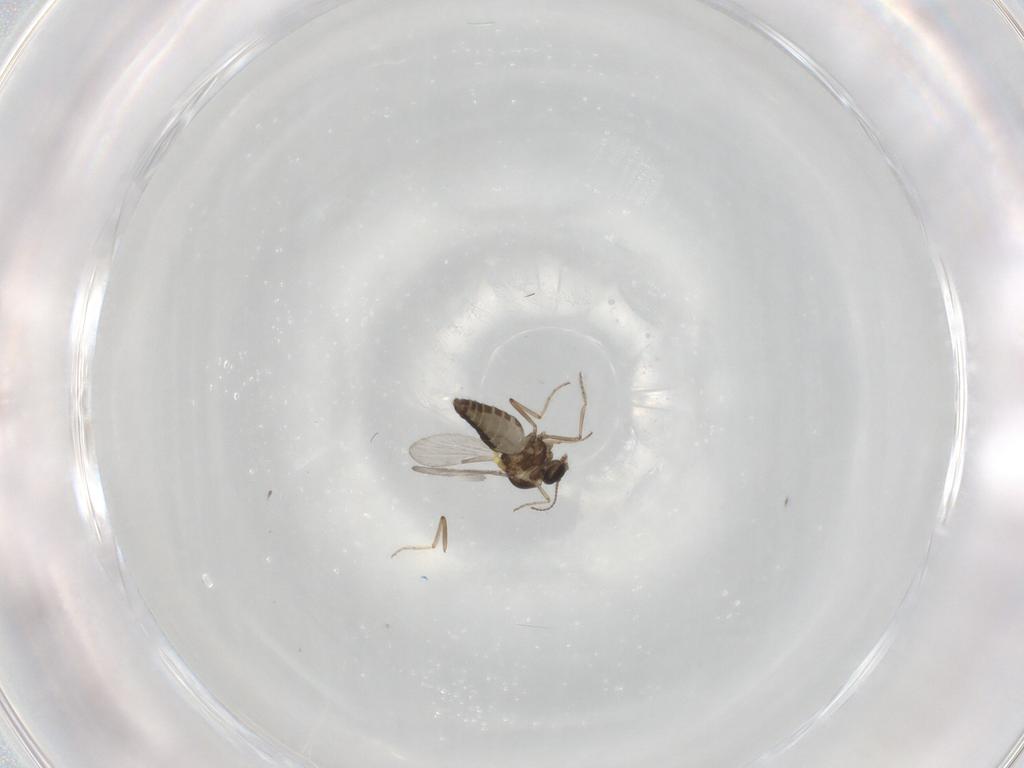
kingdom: Animalia
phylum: Arthropoda
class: Insecta
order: Diptera
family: Ceratopogonidae
